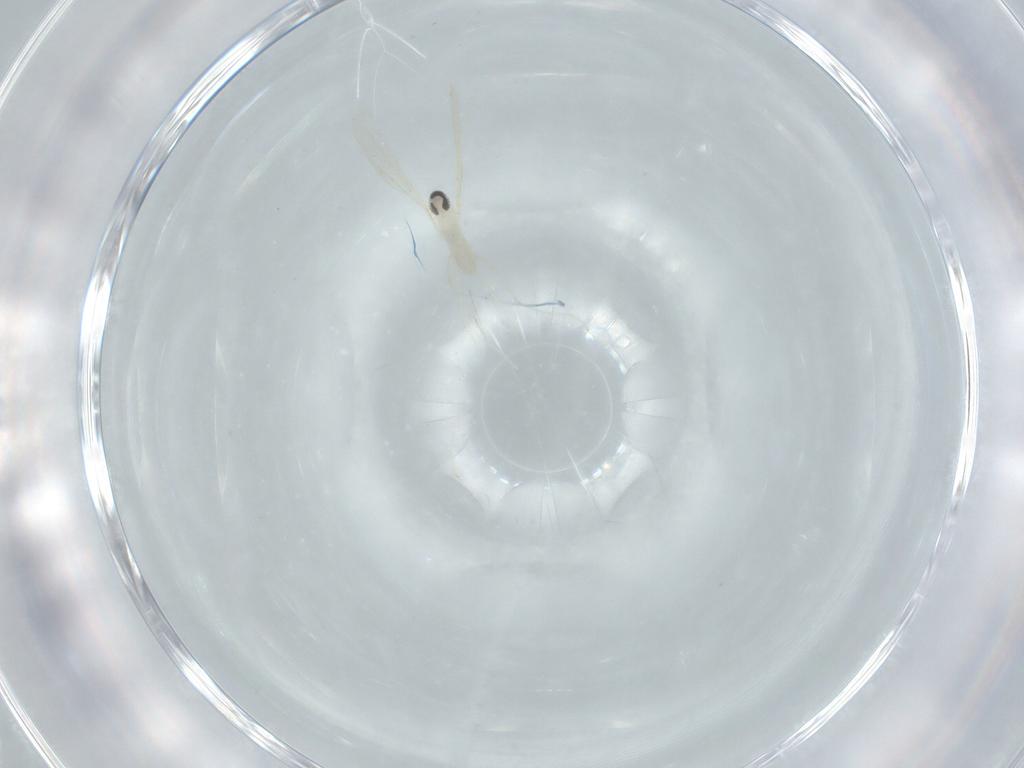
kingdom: Animalia
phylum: Arthropoda
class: Insecta
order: Diptera
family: Cecidomyiidae
